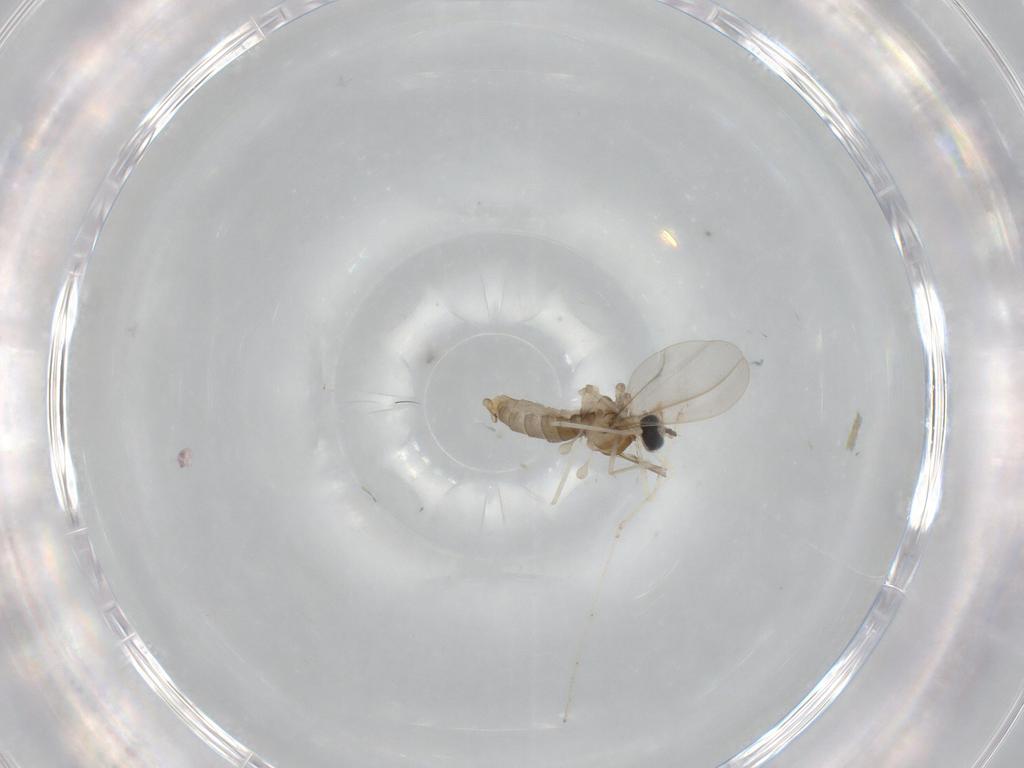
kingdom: Animalia
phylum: Arthropoda
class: Insecta
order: Diptera
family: Cecidomyiidae
